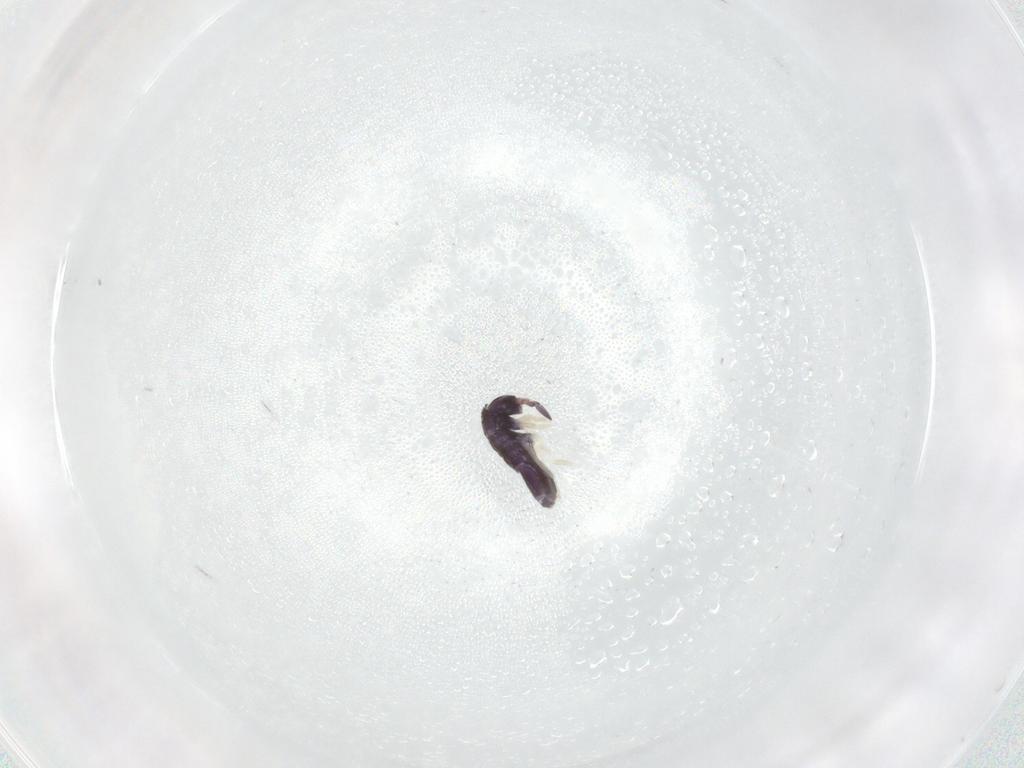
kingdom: Animalia
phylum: Arthropoda
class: Collembola
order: Entomobryomorpha
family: Entomobryidae
